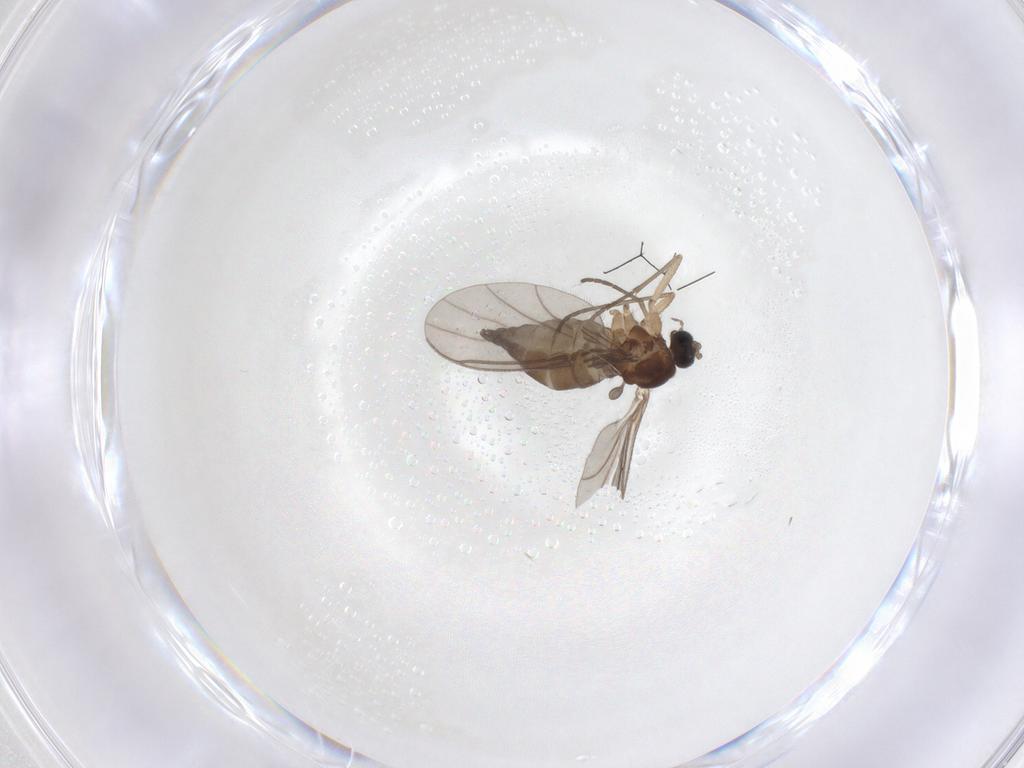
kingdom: Animalia
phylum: Arthropoda
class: Insecta
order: Diptera
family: Sciaridae
